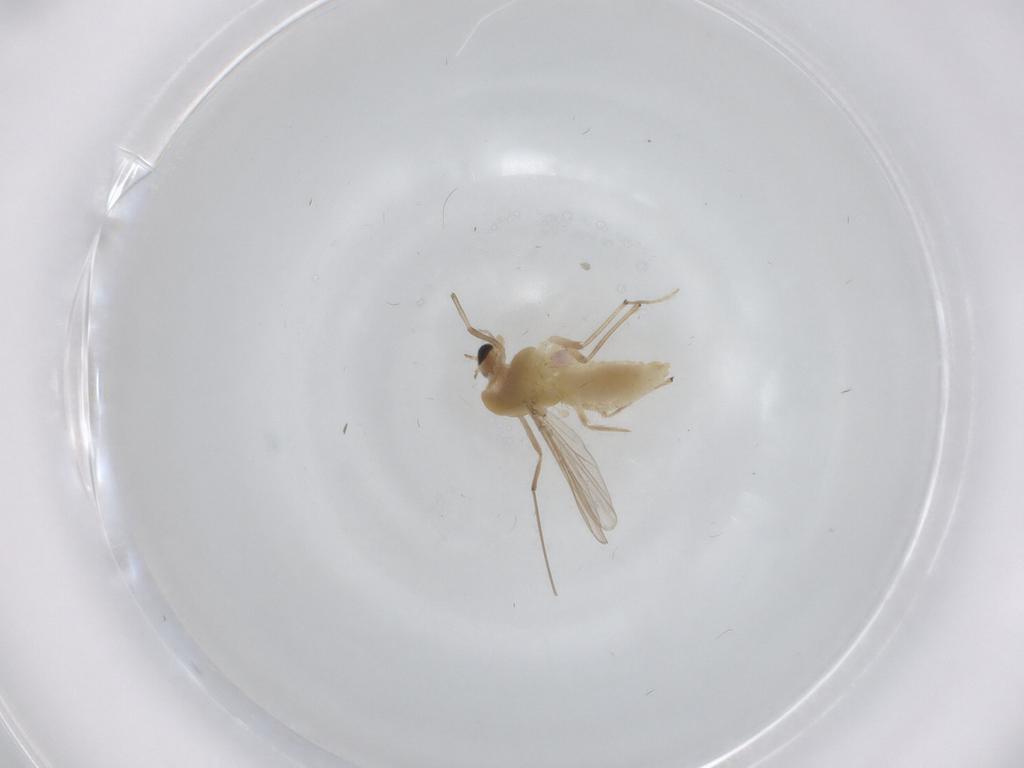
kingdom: Animalia
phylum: Arthropoda
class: Insecta
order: Diptera
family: Chironomidae
